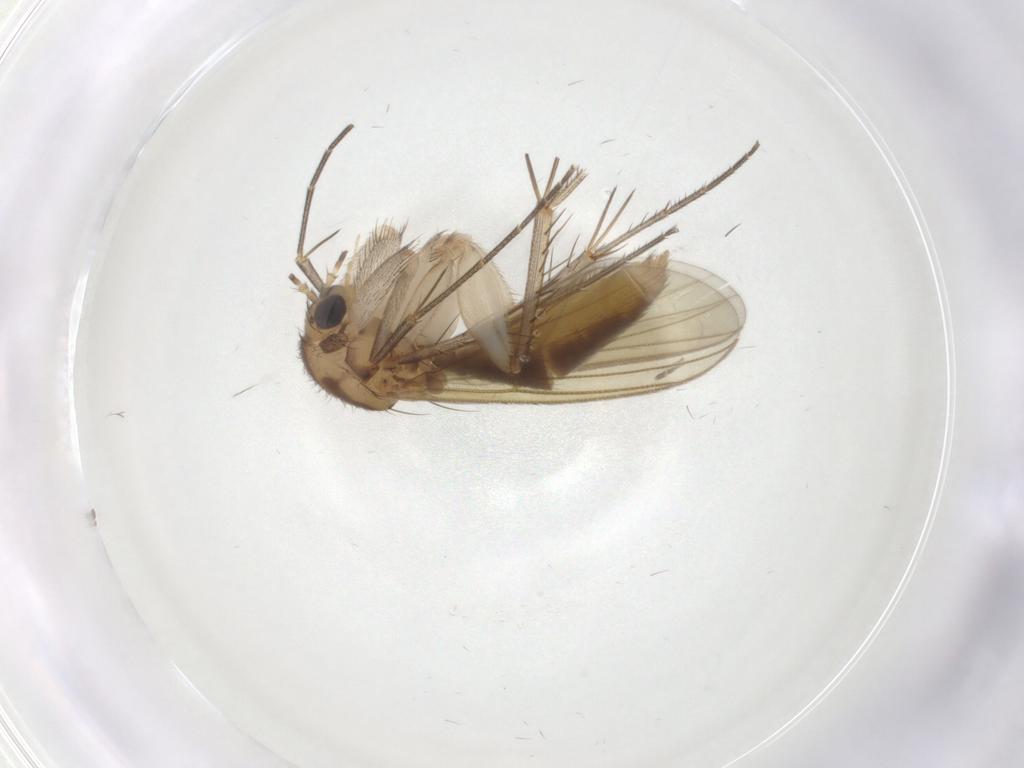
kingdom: Animalia
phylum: Arthropoda
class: Insecta
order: Diptera
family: Mycetophilidae
